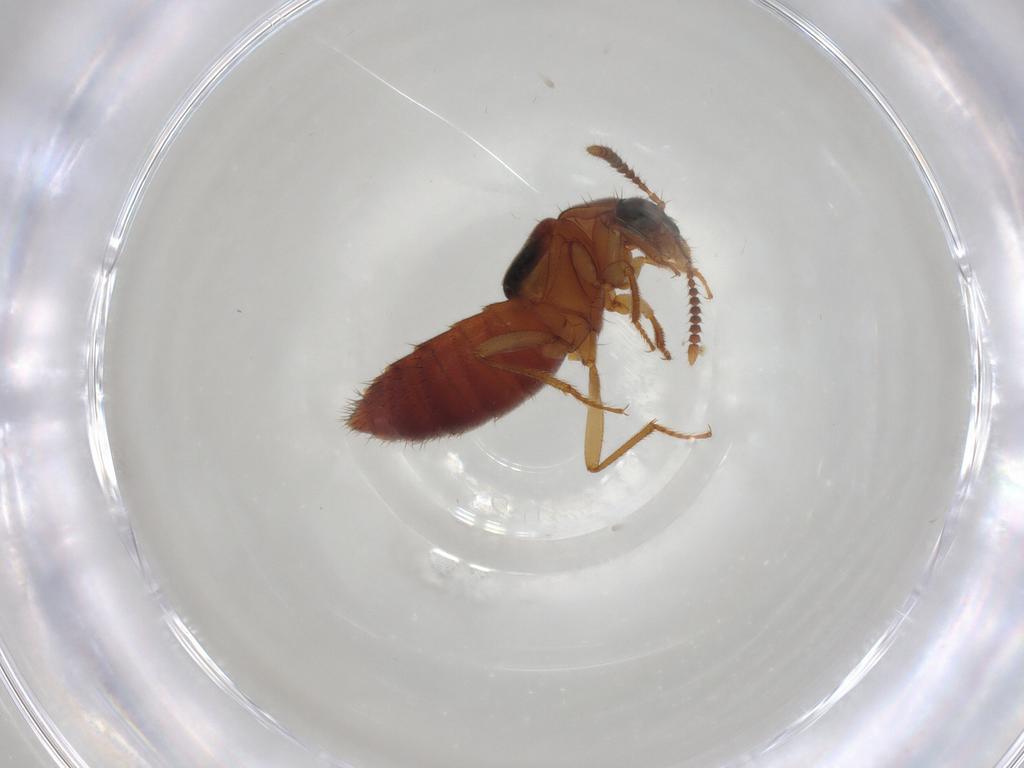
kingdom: Animalia
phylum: Arthropoda
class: Insecta
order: Coleoptera
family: Staphylinidae
